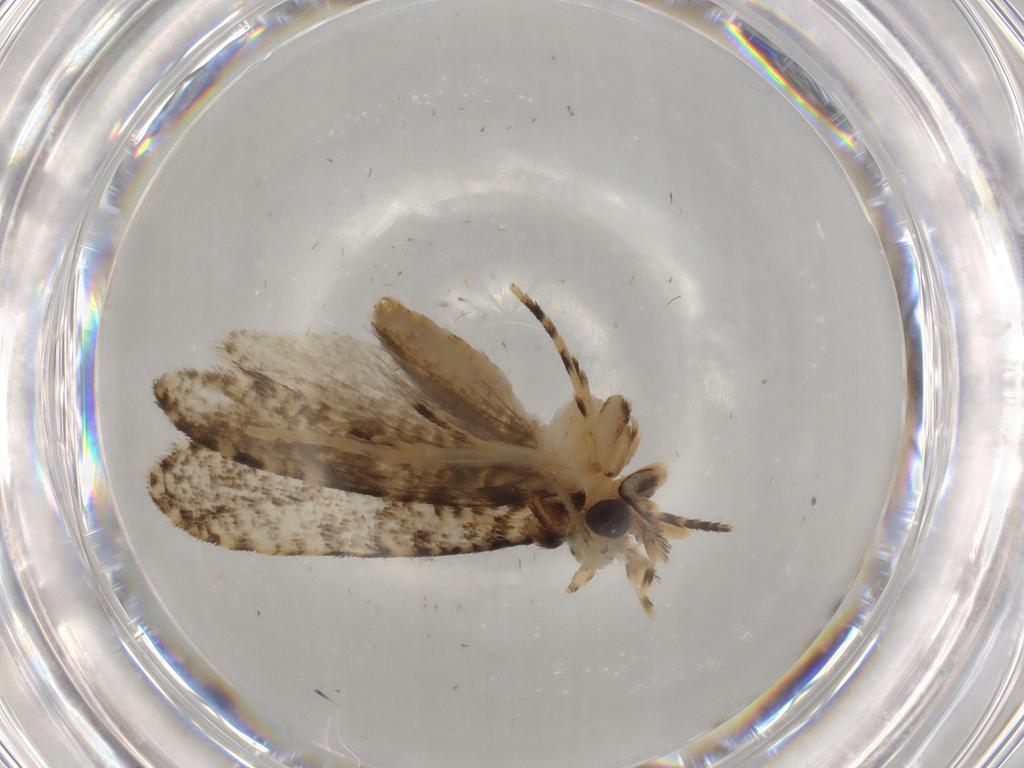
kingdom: Animalia
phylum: Arthropoda
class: Insecta
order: Lepidoptera
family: Tineidae
